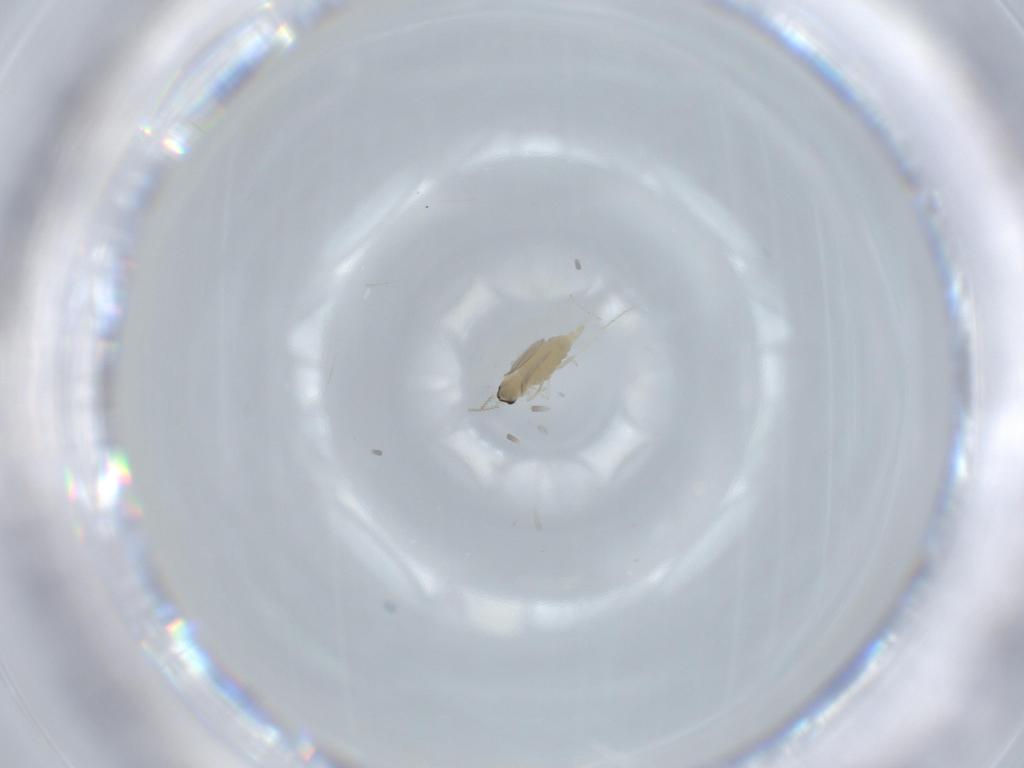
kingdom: Animalia
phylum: Arthropoda
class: Insecta
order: Diptera
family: Cecidomyiidae
